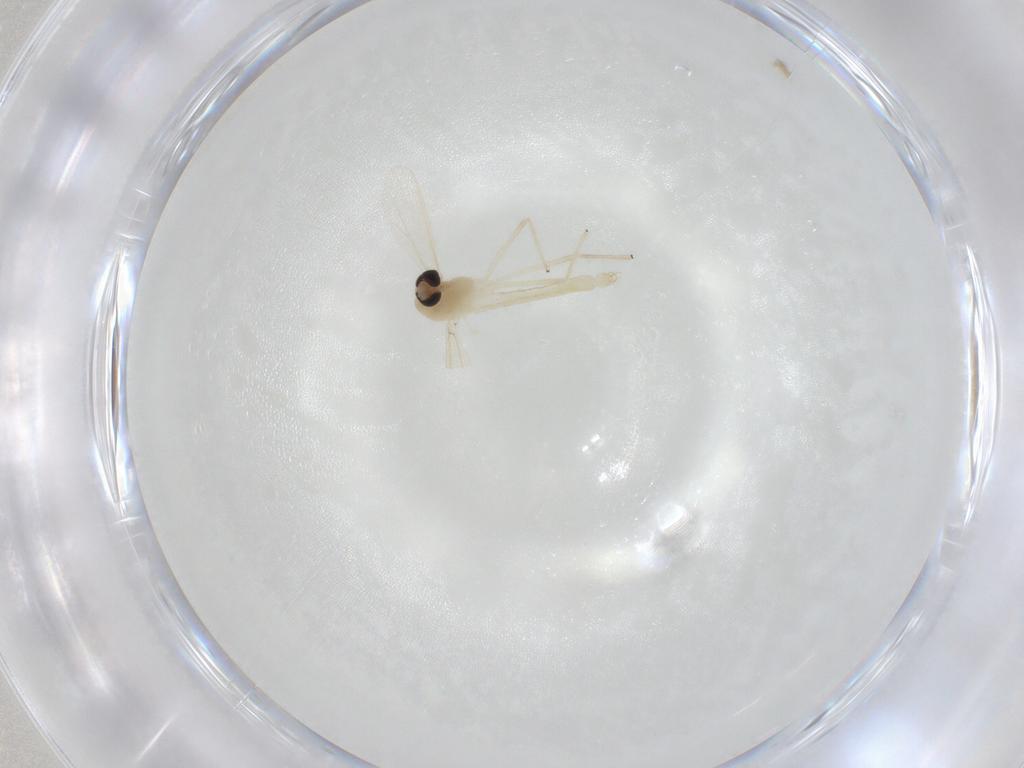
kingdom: Animalia
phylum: Arthropoda
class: Insecta
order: Diptera
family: Chironomidae
